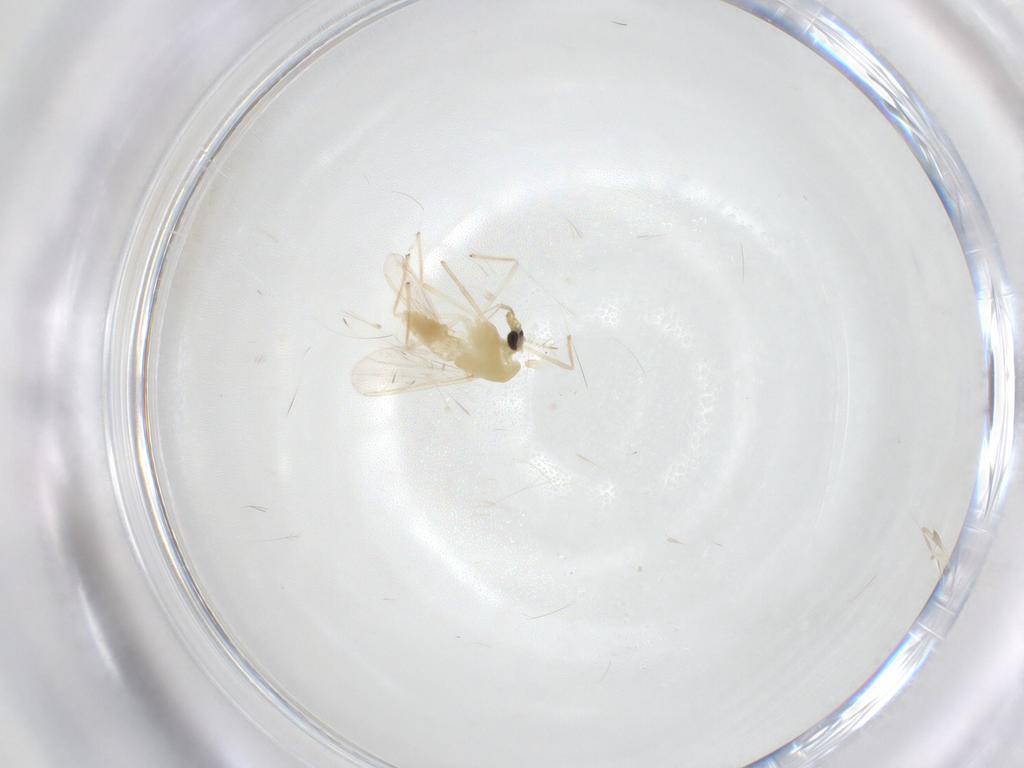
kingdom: Animalia
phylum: Arthropoda
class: Insecta
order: Diptera
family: Chironomidae
